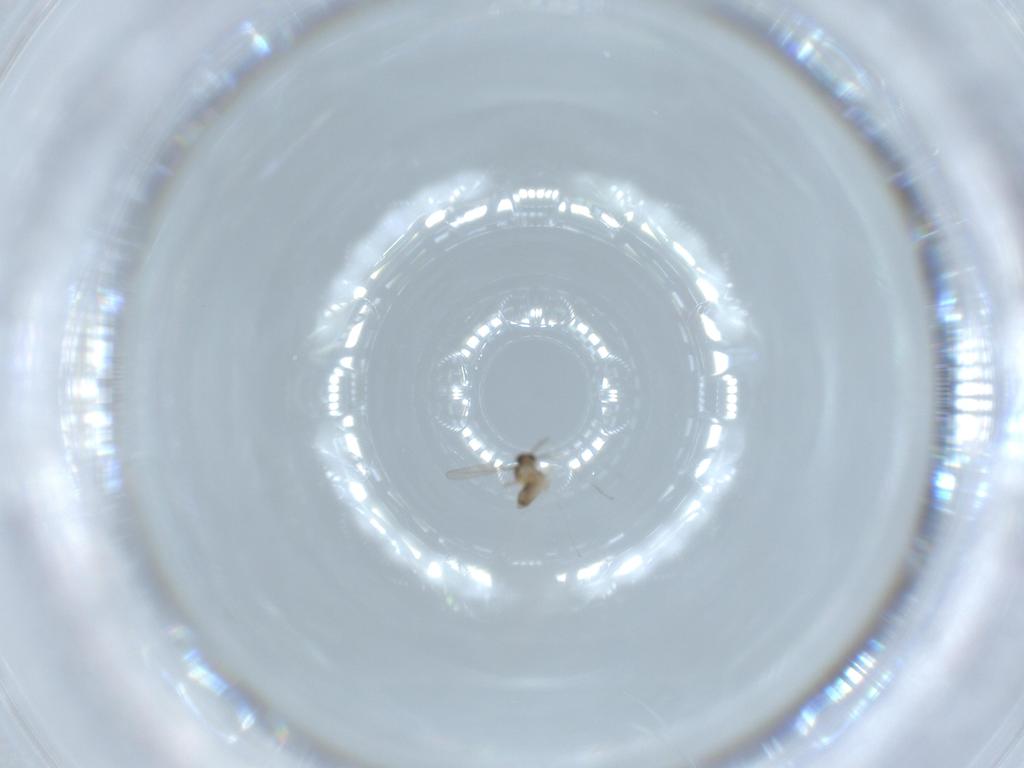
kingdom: Animalia
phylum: Arthropoda
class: Insecta
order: Diptera
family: Cecidomyiidae
